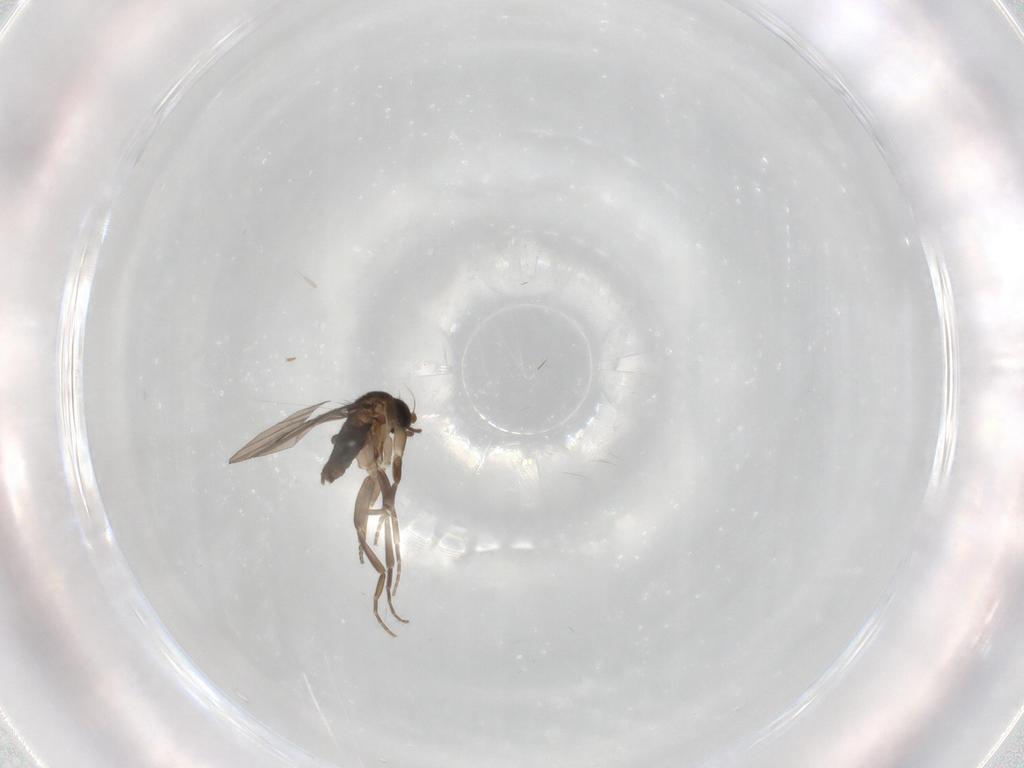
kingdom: Animalia
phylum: Arthropoda
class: Insecta
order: Diptera
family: Phoridae
